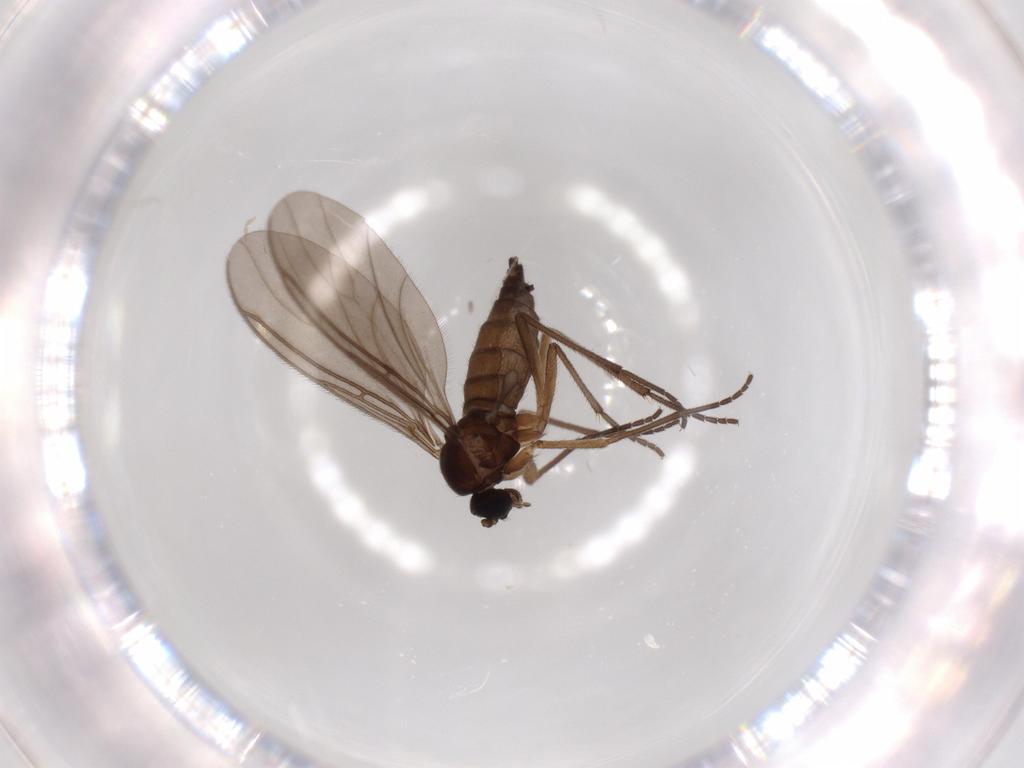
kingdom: Animalia
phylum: Arthropoda
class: Insecta
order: Diptera
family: Sciaridae
